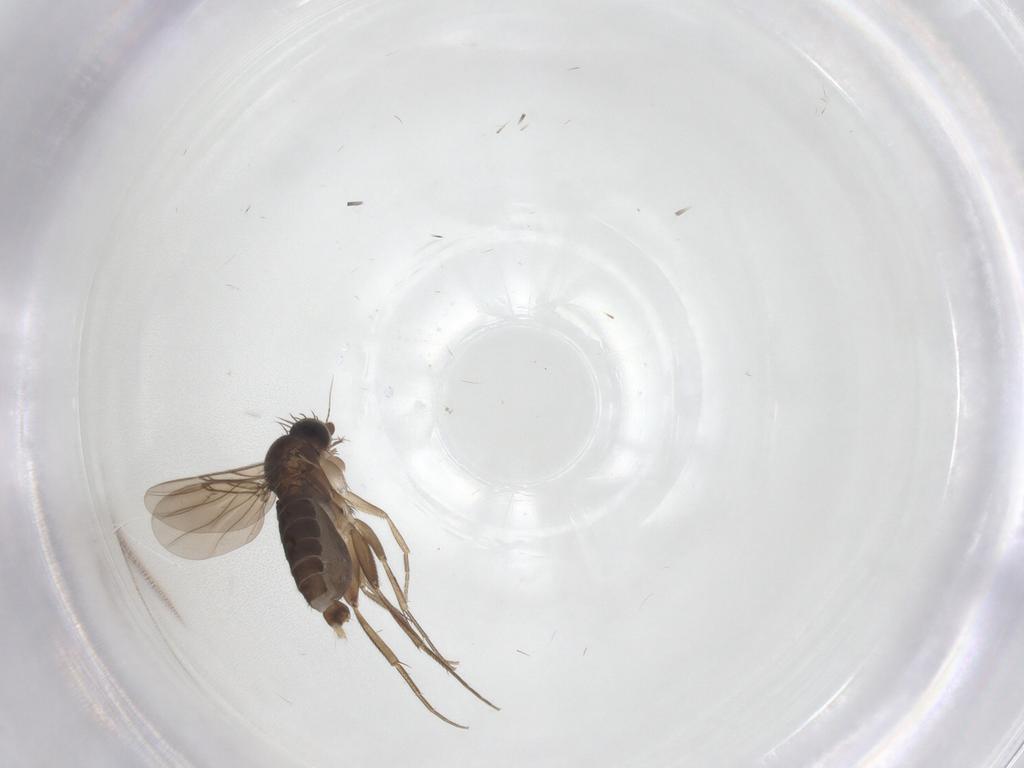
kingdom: Animalia
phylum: Arthropoda
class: Insecta
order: Diptera
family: Phoridae
